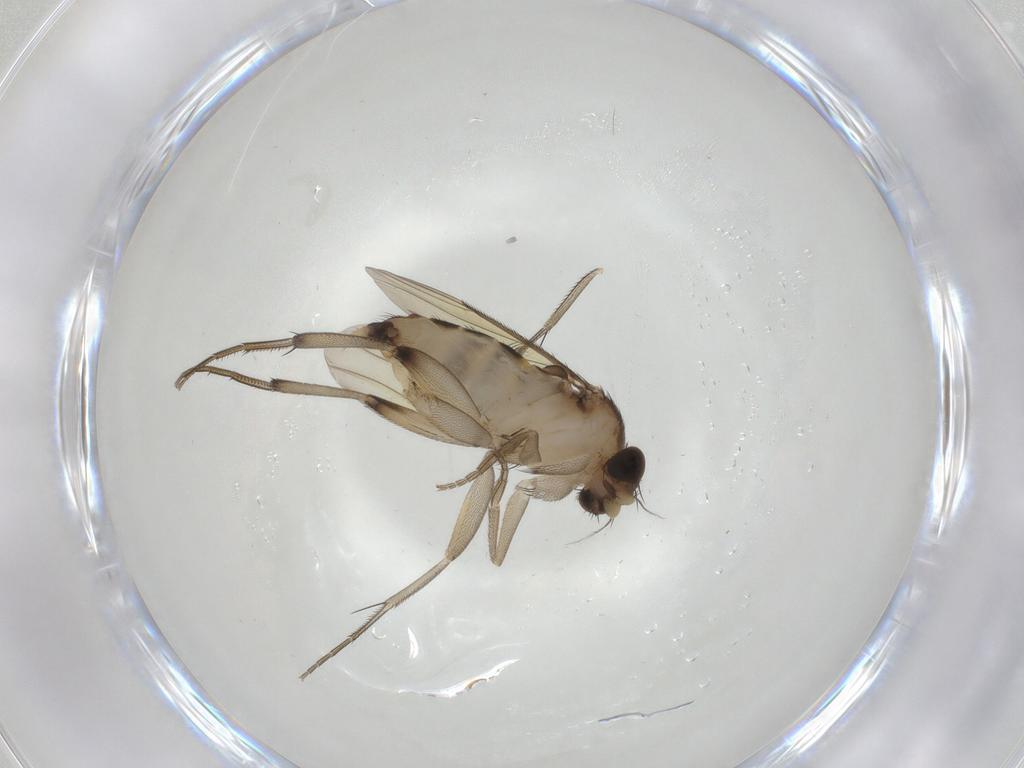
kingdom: Animalia
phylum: Arthropoda
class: Insecta
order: Diptera
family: Phoridae
